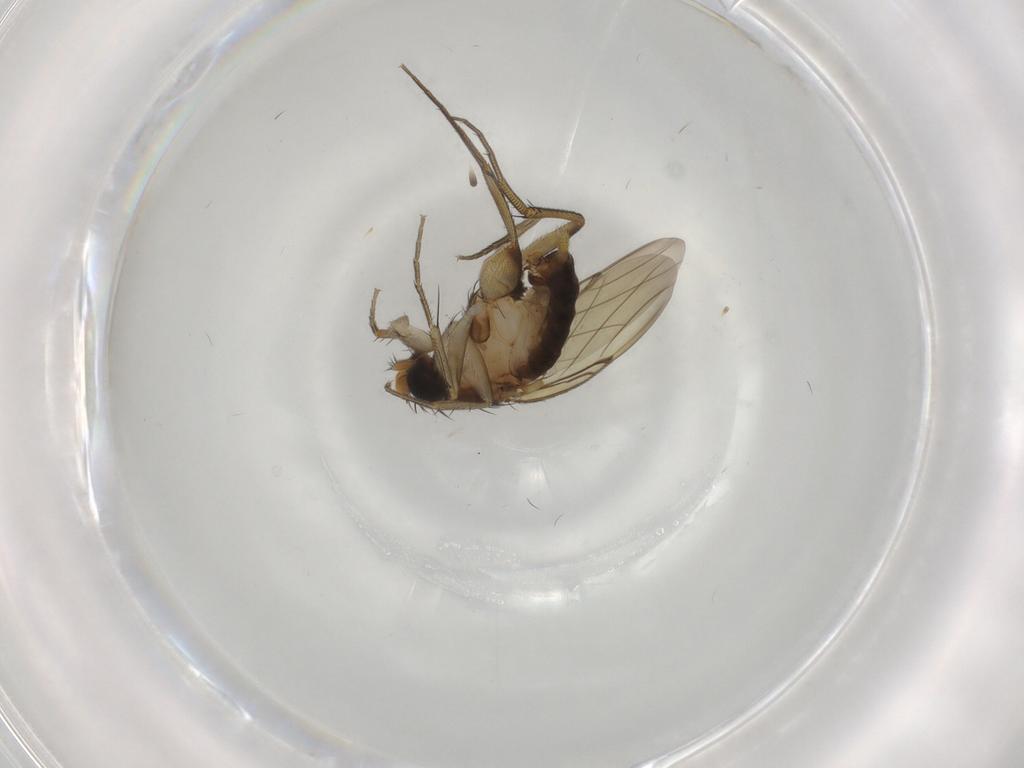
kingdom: Animalia
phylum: Arthropoda
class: Insecta
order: Diptera
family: Phoridae
